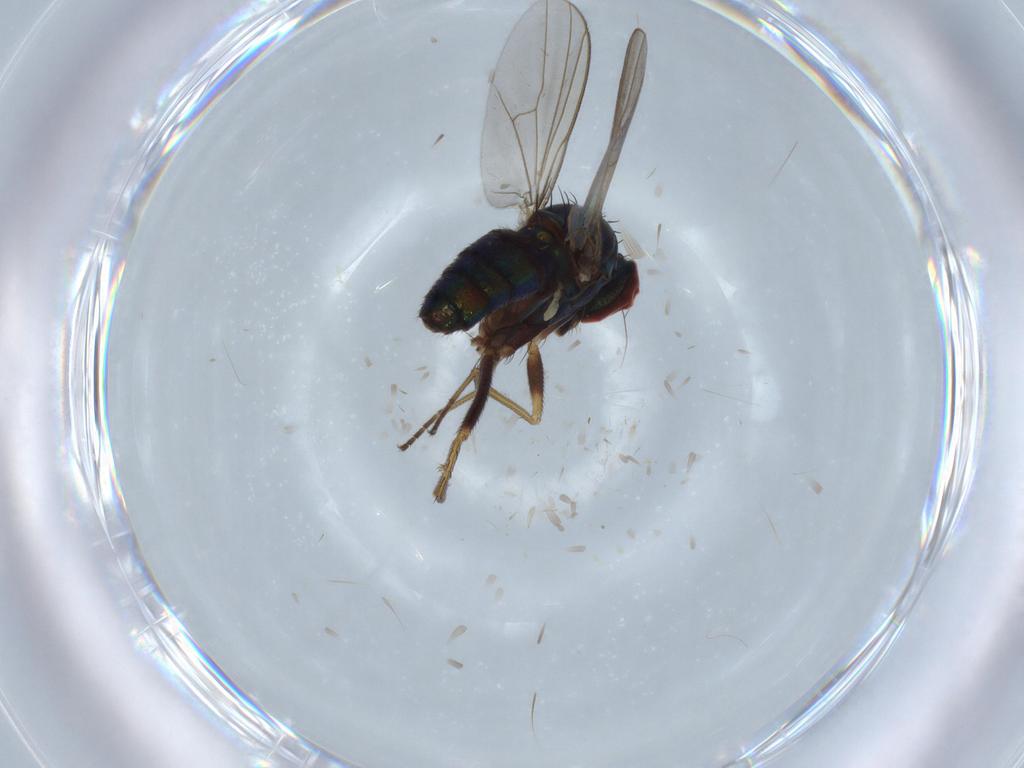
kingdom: Animalia
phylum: Arthropoda
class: Insecta
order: Diptera
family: Dolichopodidae
